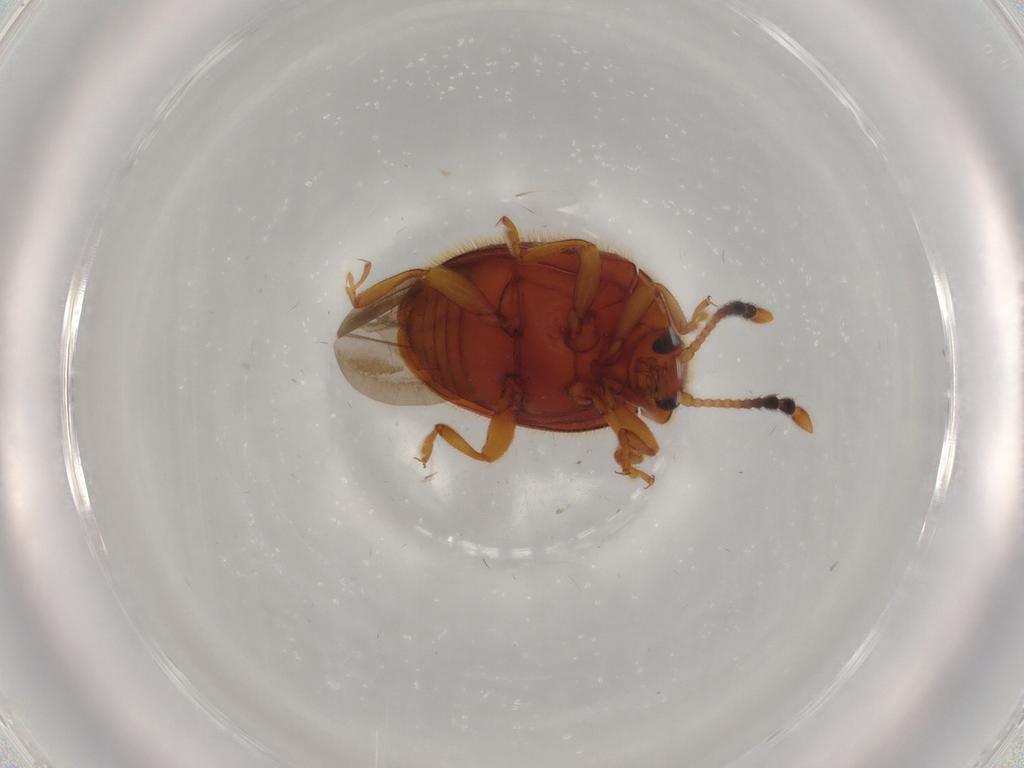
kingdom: Animalia
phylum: Arthropoda
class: Insecta
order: Coleoptera
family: Endomychidae
